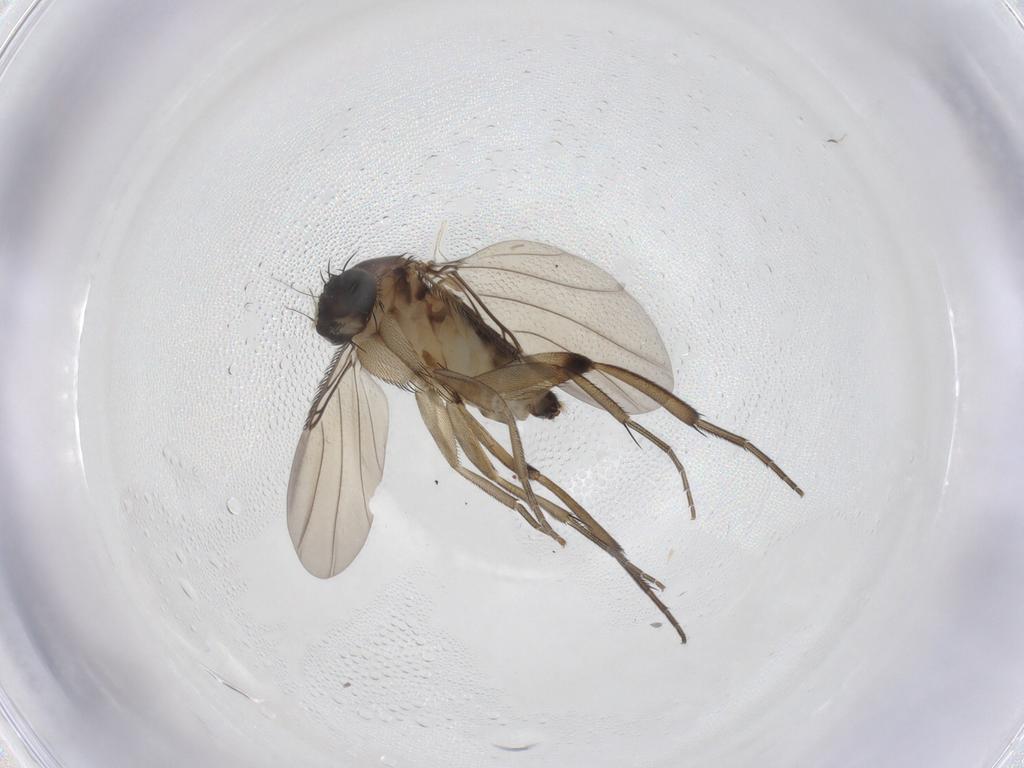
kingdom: Animalia
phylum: Arthropoda
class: Insecta
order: Diptera
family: Phoridae
